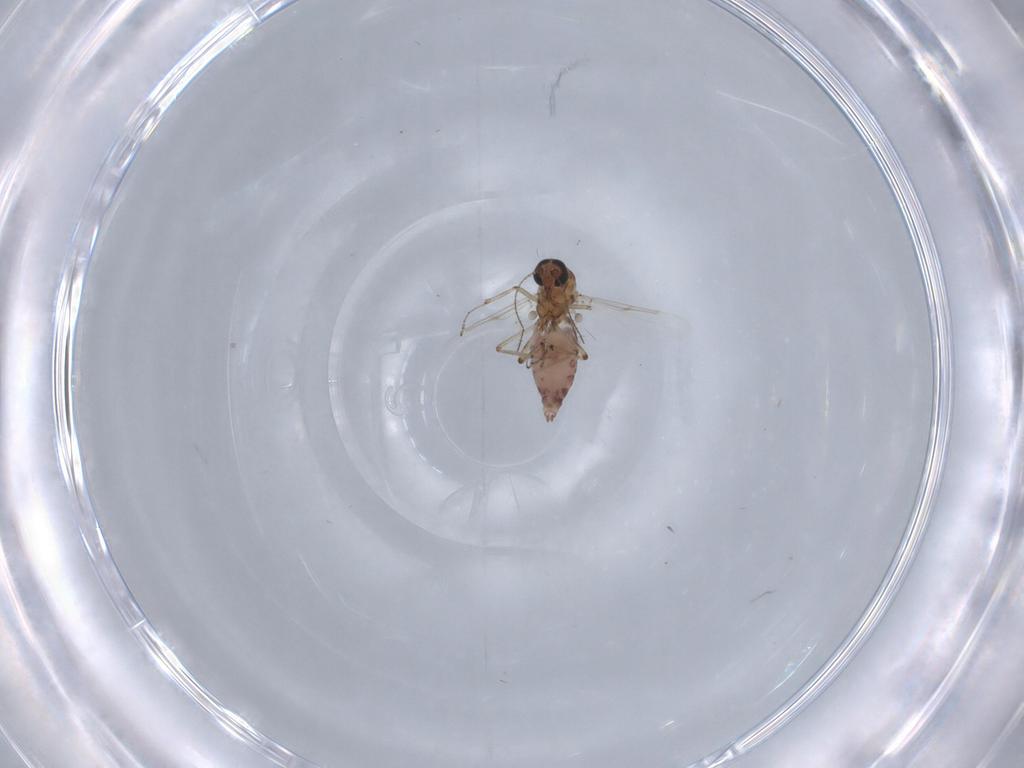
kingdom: Animalia
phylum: Arthropoda
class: Insecta
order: Diptera
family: Ceratopogonidae
